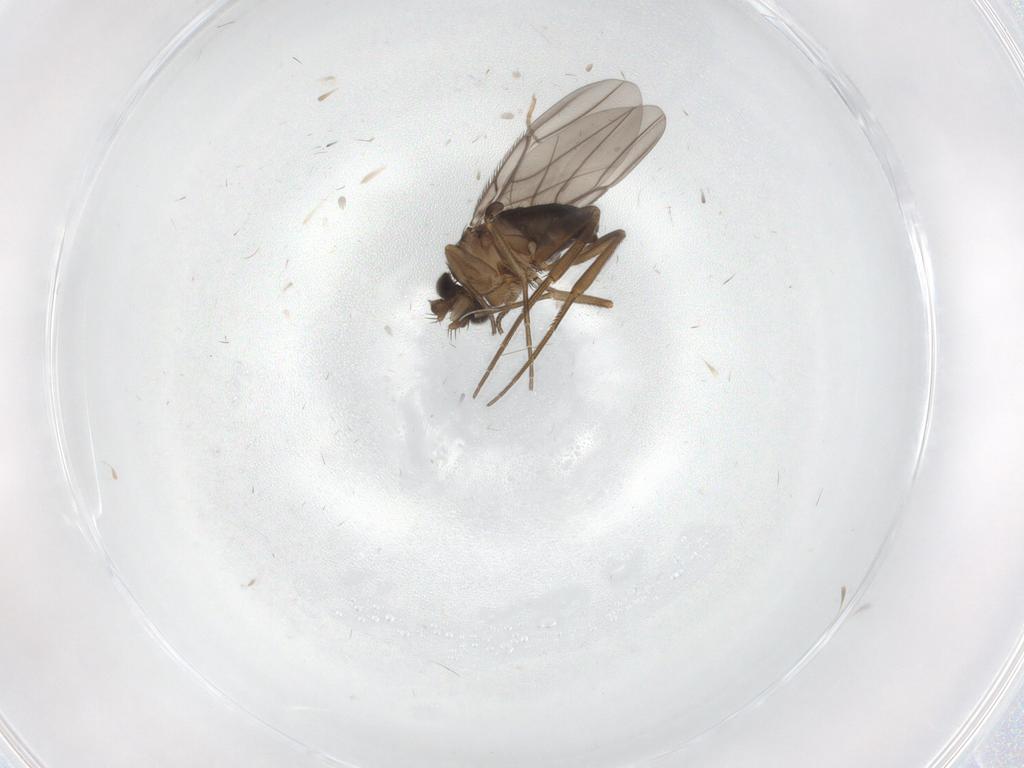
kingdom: Animalia
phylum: Arthropoda
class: Insecta
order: Diptera
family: Phoridae
